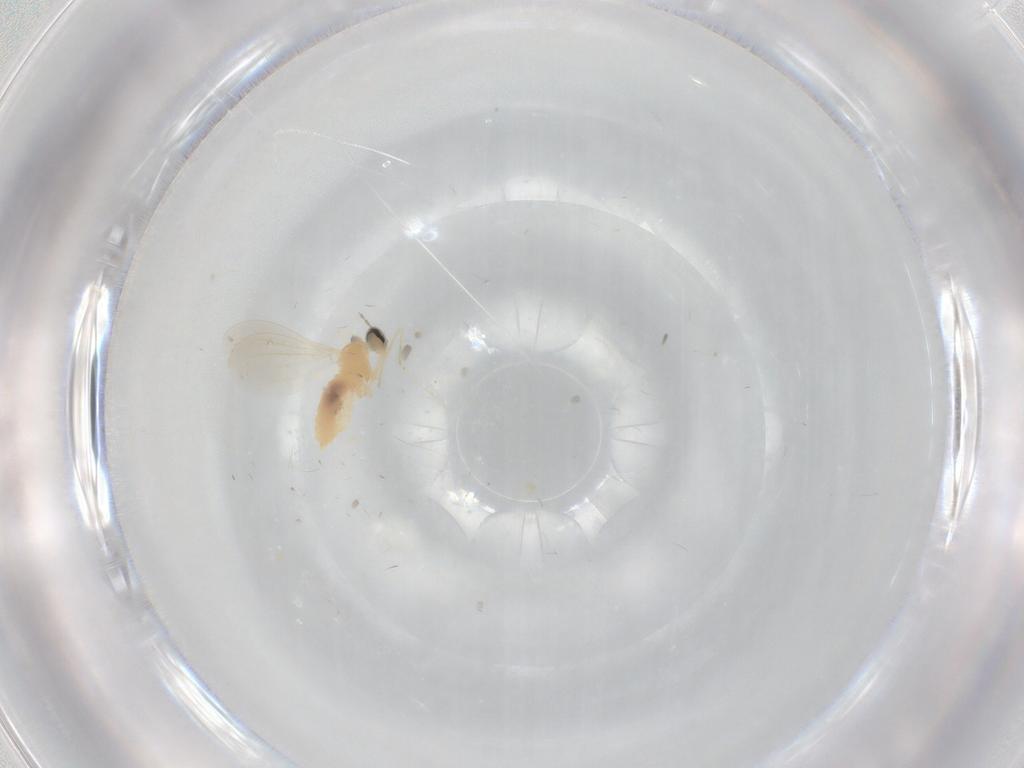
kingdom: Animalia
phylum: Arthropoda
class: Insecta
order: Diptera
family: Cecidomyiidae
